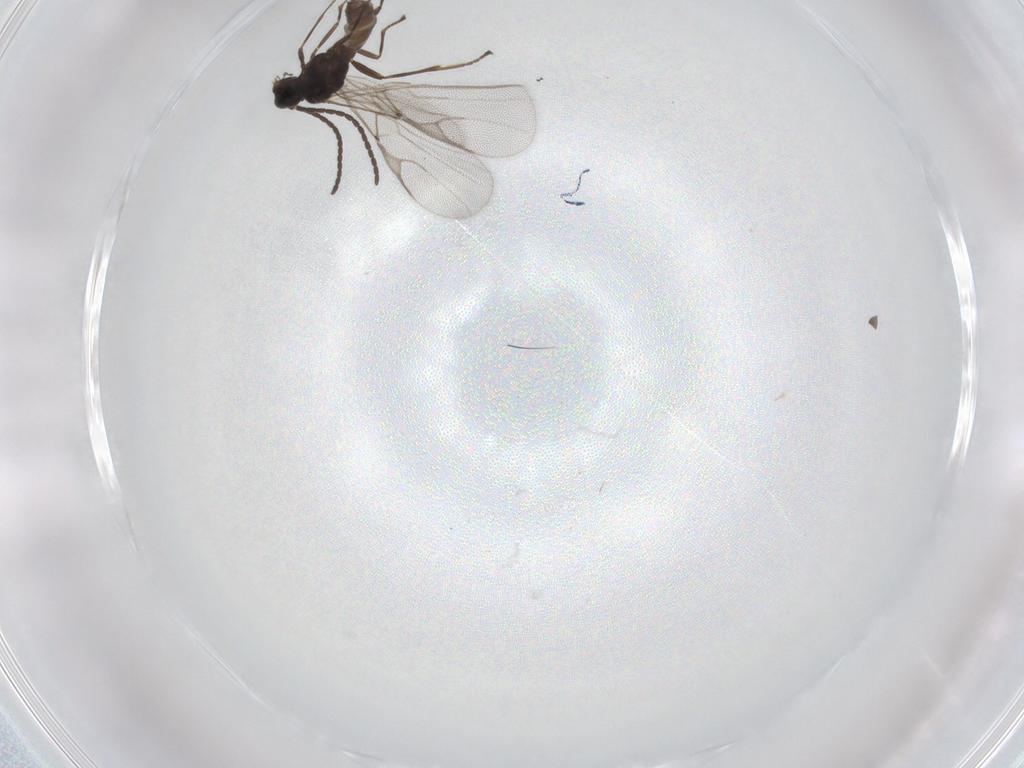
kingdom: Animalia
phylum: Arthropoda
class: Insecta
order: Hymenoptera
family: Braconidae
